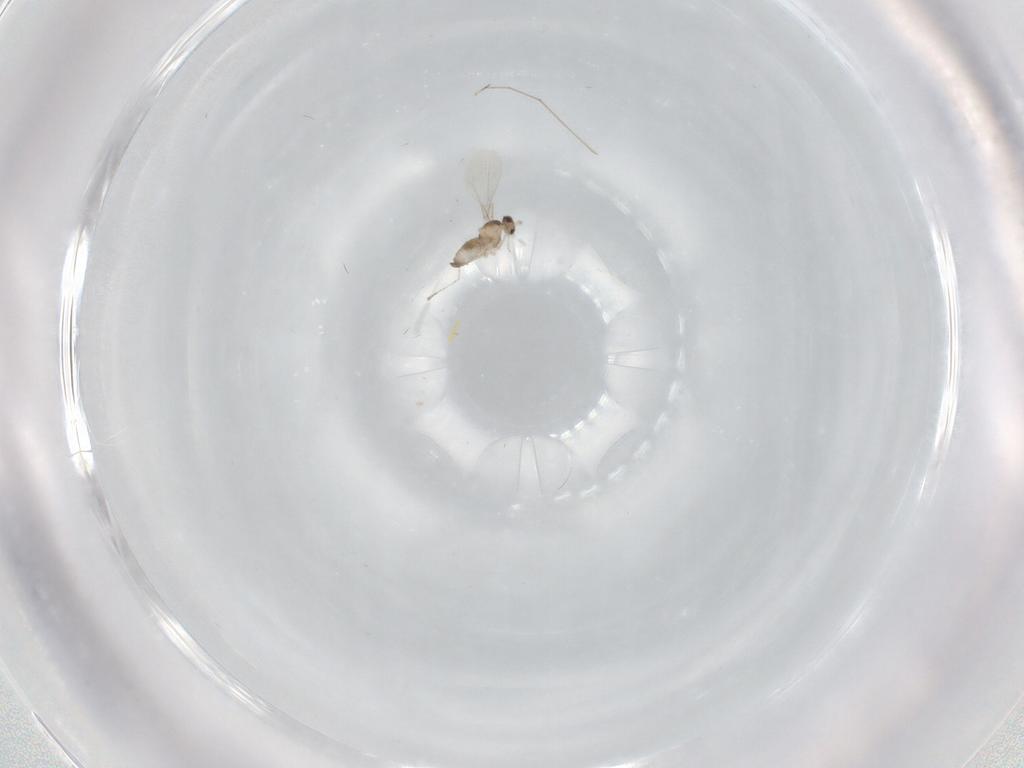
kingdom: Animalia
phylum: Arthropoda
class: Insecta
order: Diptera
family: Cecidomyiidae
